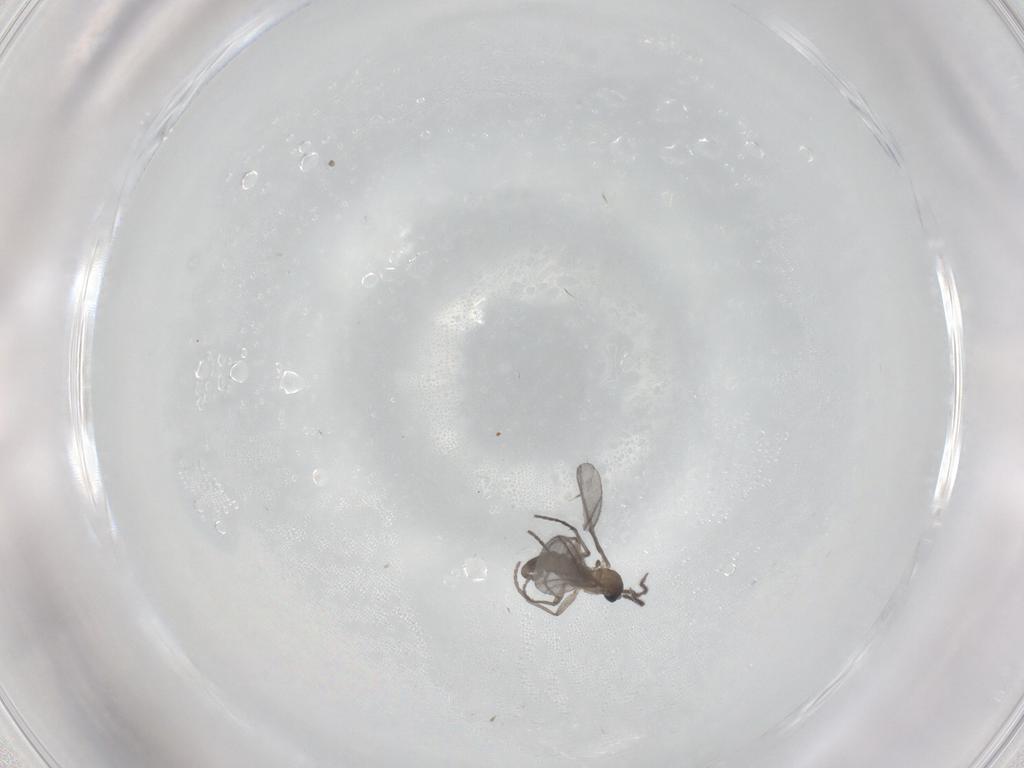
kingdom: Animalia
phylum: Arthropoda
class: Insecta
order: Diptera
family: Sciaridae
